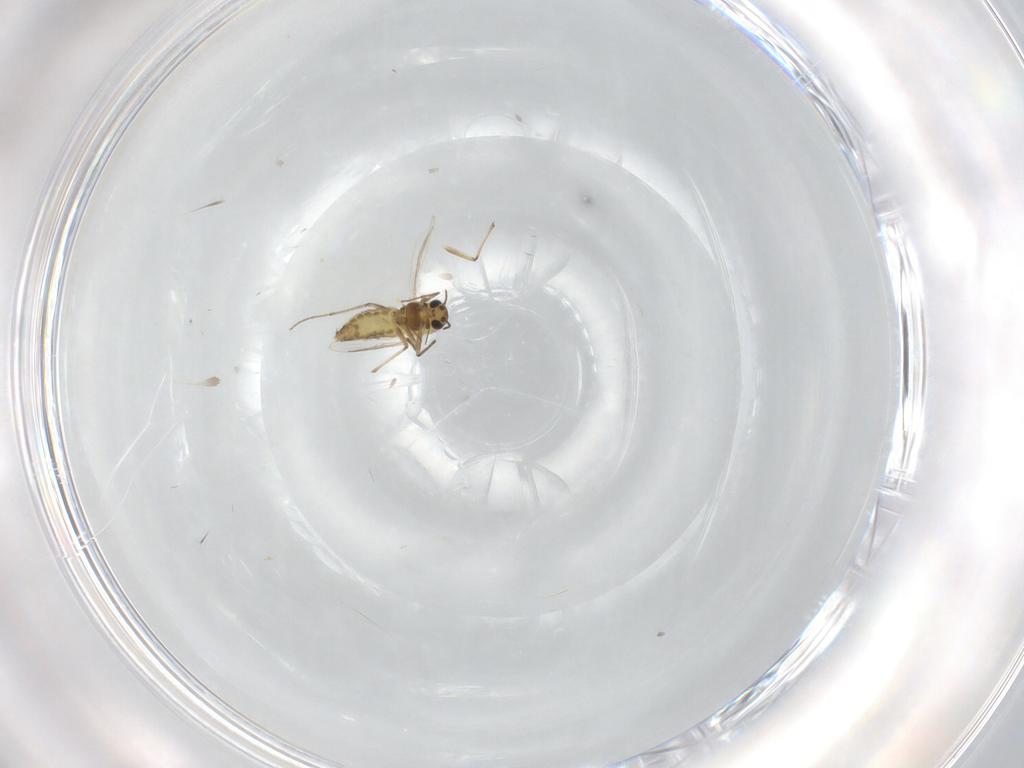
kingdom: Animalia
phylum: Arthropoda
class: Insecta
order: Diptera
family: Chironomidae
